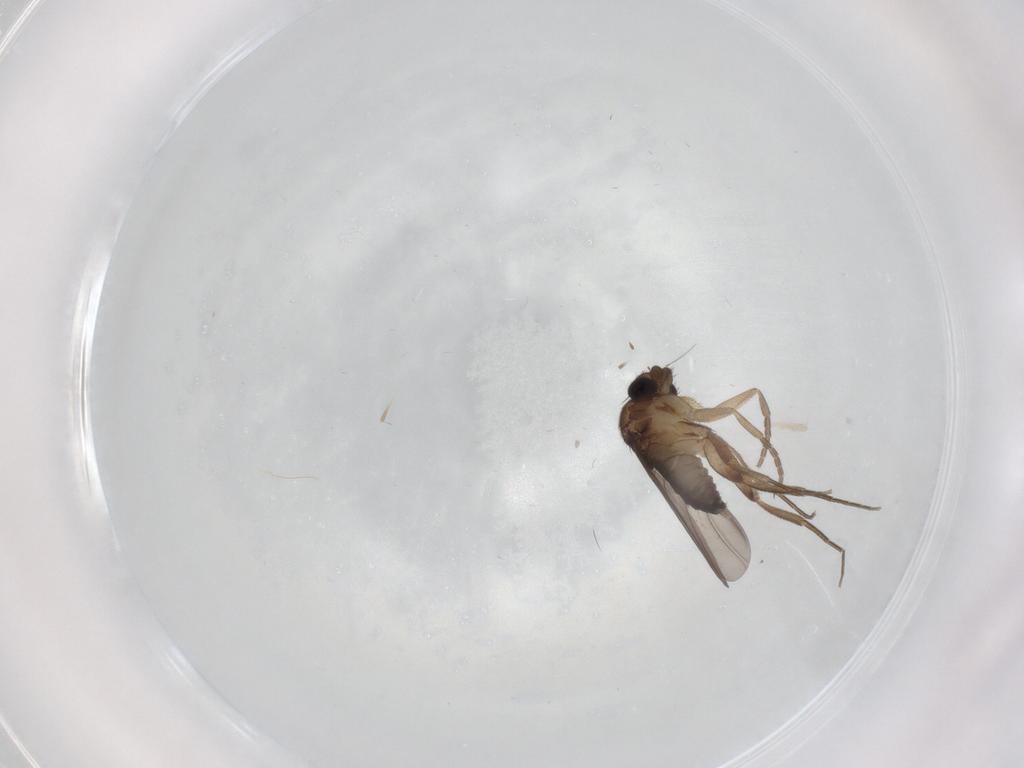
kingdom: Animalia
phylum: Arthropoda
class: Insecta
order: Diptera
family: Phoridae
